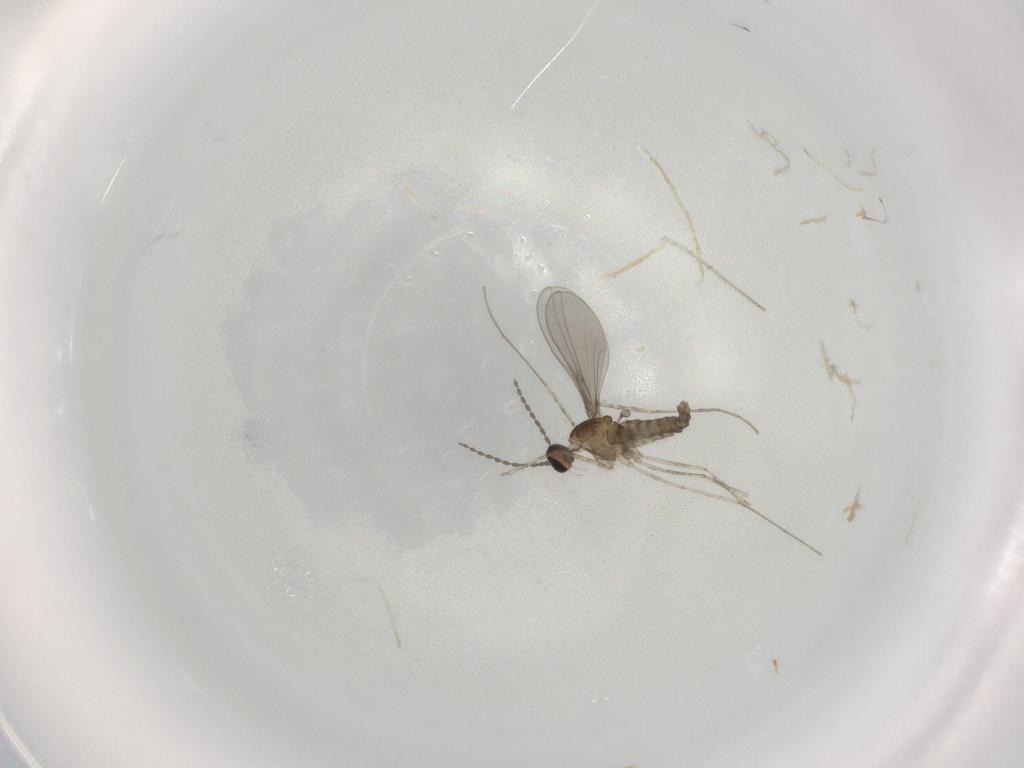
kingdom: Animalia
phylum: Arthropoda
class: Insecta
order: Diptera
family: Cecidomyiidae
